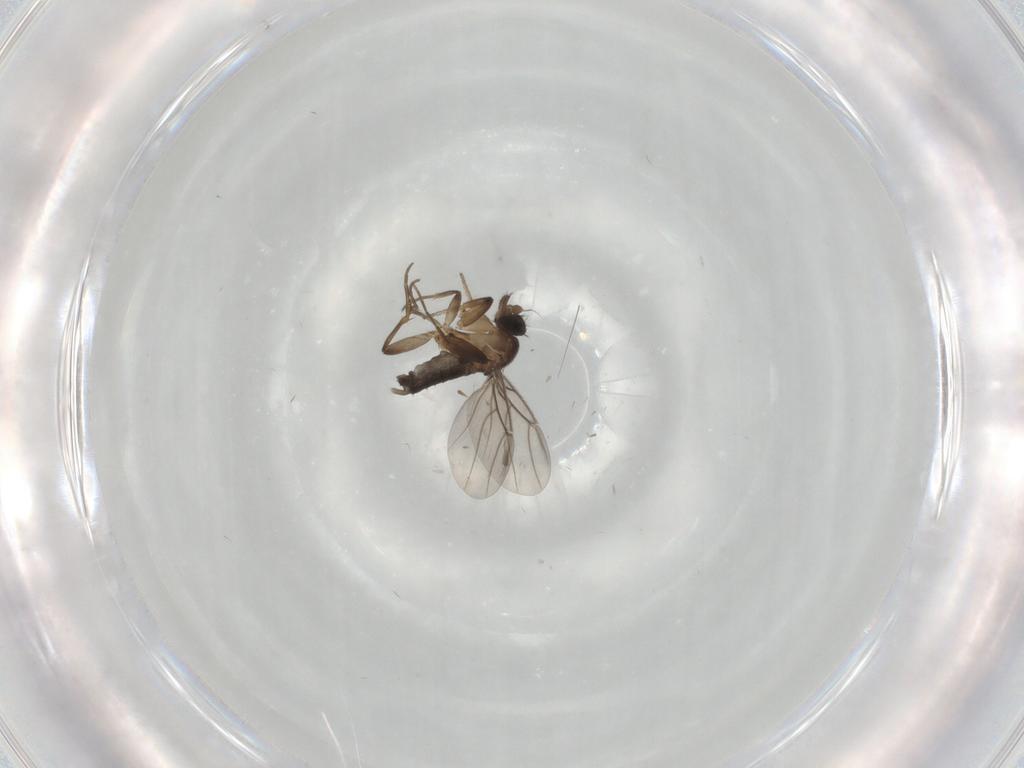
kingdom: Animalia
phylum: Arthropoda
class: Insecta
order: Diptera
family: Phoridae
